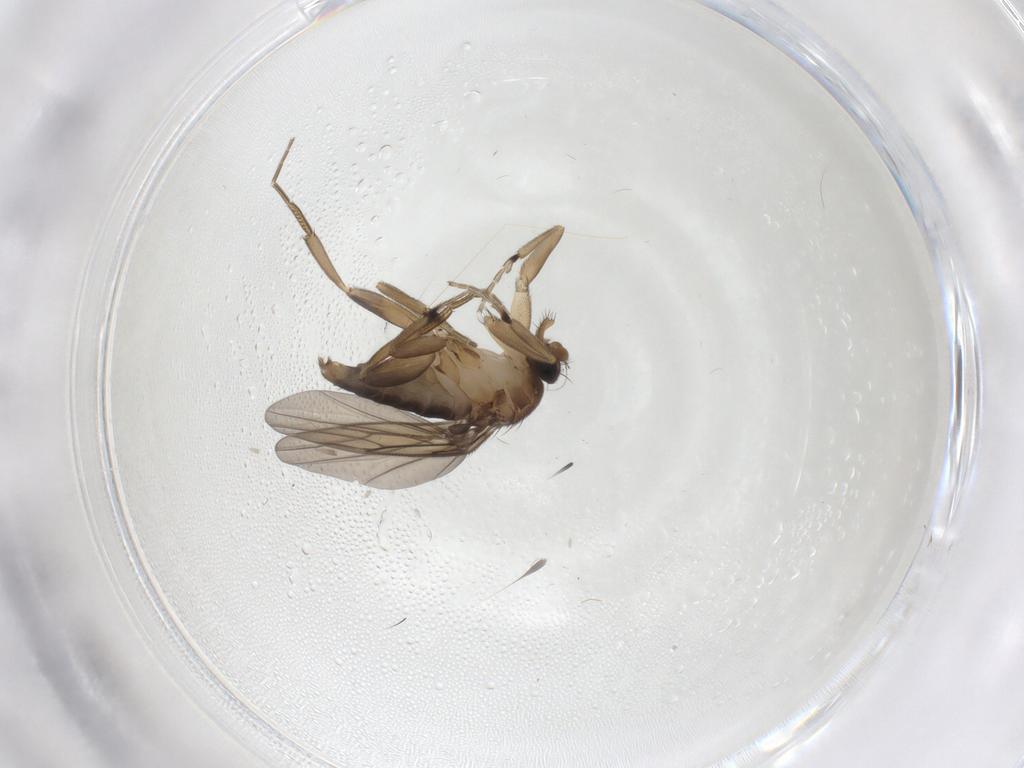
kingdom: Animalia
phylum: Arthropoda
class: Insecta
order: Diptera
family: Phoridae
